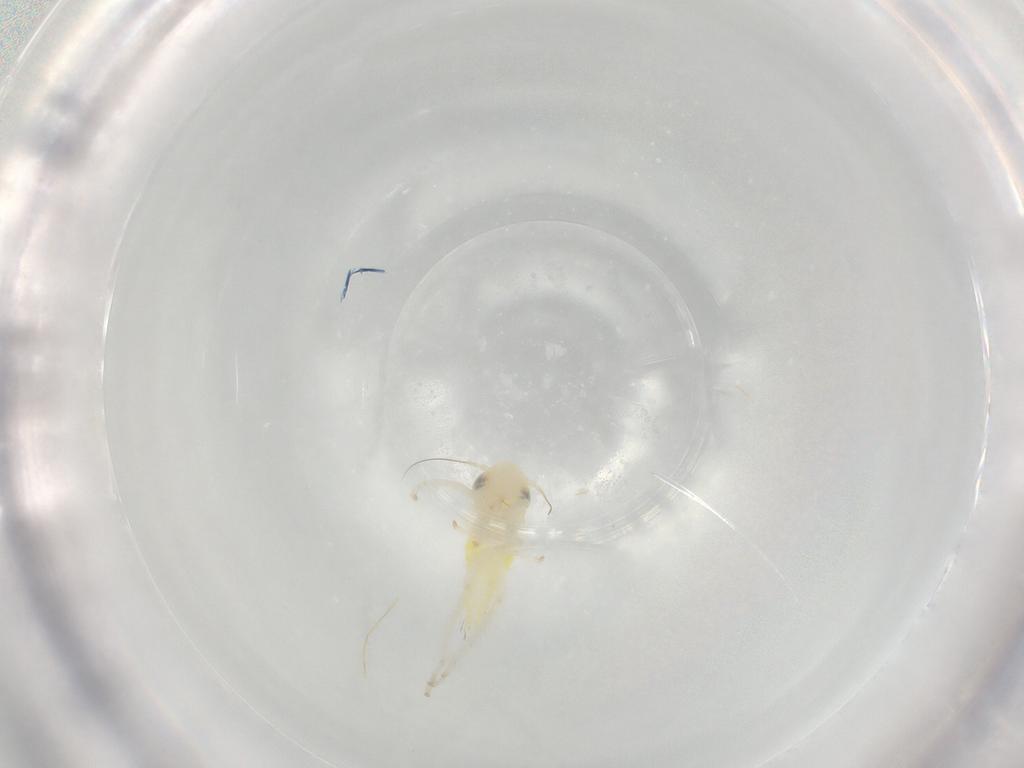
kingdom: Animalia
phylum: Arthropoda
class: Insecta
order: Hemiptera
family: Cicadellidae
